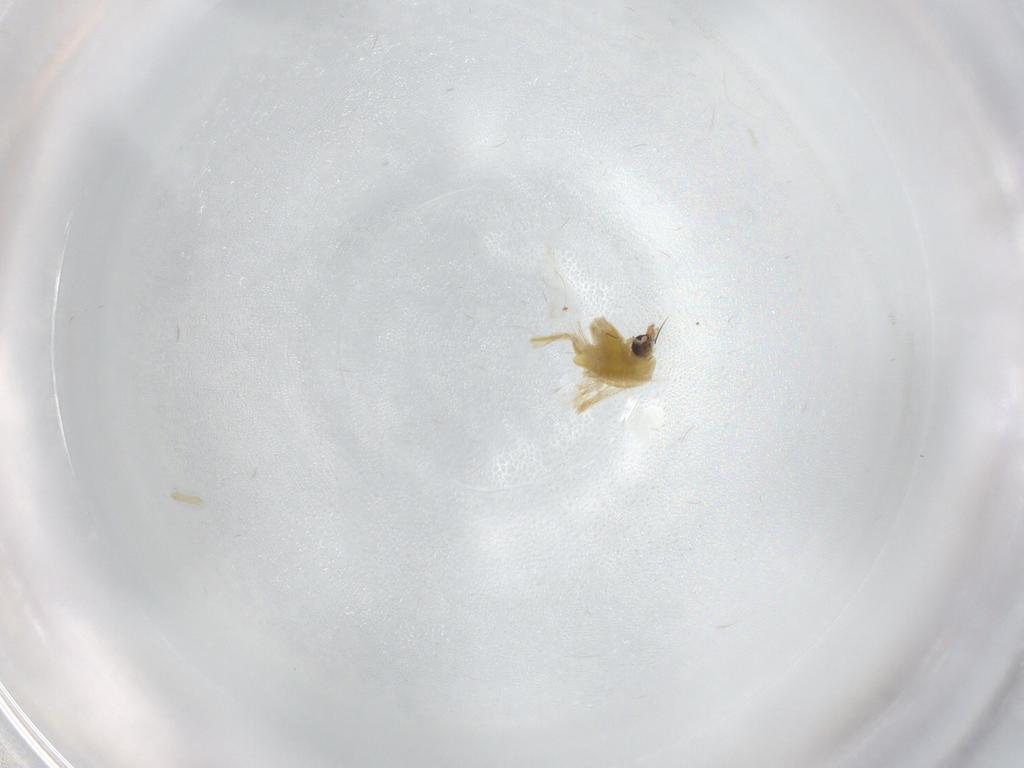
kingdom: Animalia
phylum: Arthropoda
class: Insecta
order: Diptera
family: Chironomidae
